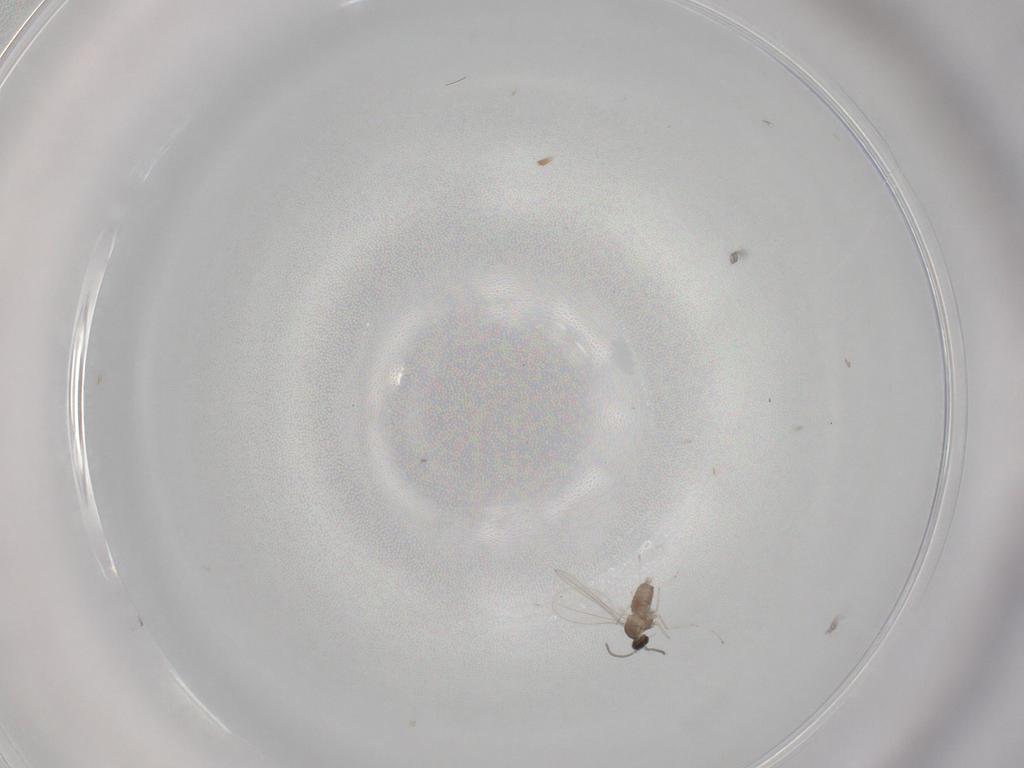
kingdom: Animalia
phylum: Arthropoda
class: Insecta
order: Diptera
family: Cecidomyiidae
